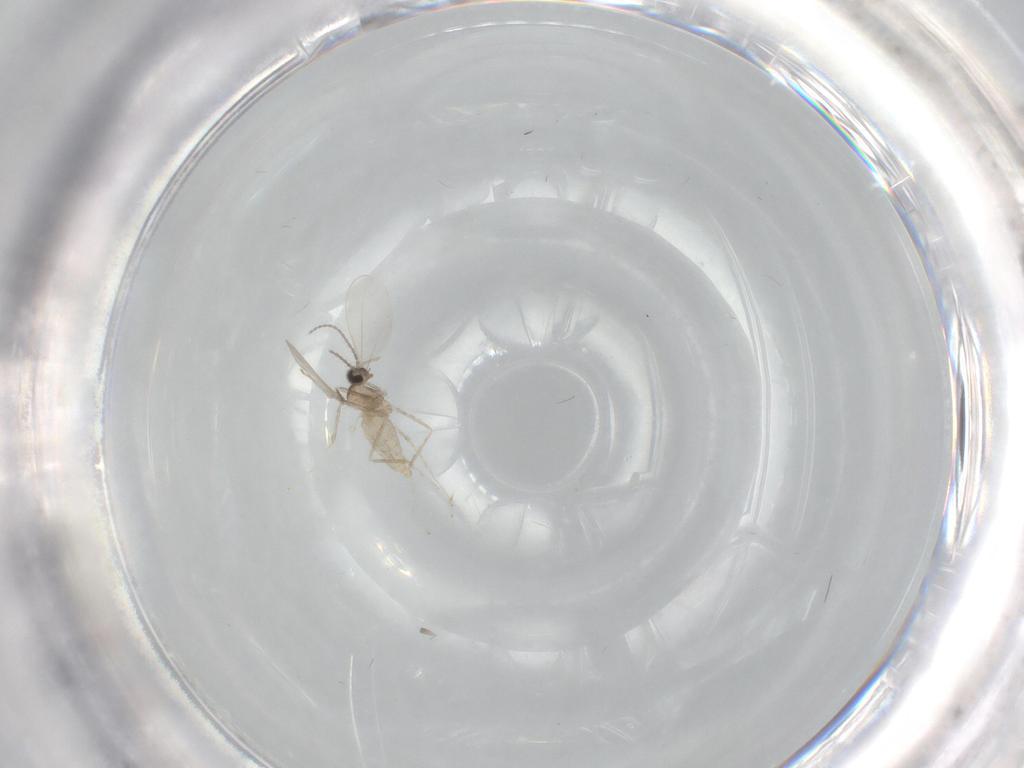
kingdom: Animalia
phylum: Arthropoda
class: Insecta
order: Diptera
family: Cecidomyiidae
